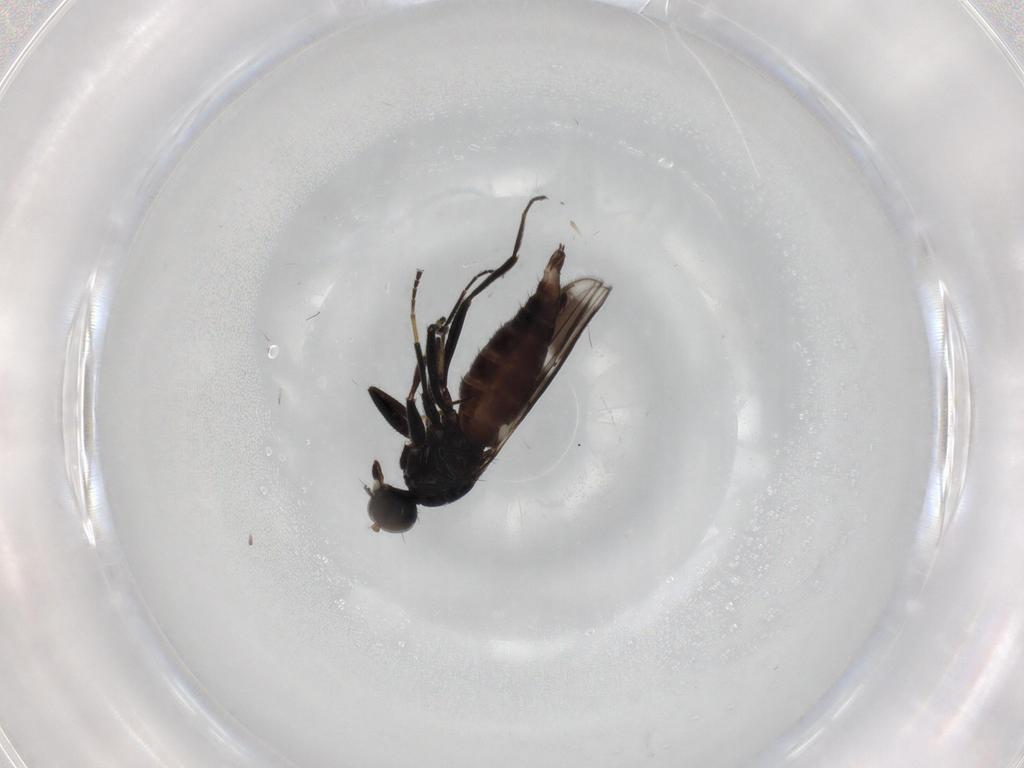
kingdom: Animalia
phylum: Arthropoda
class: Insecta
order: Diptera
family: Hybotidae
